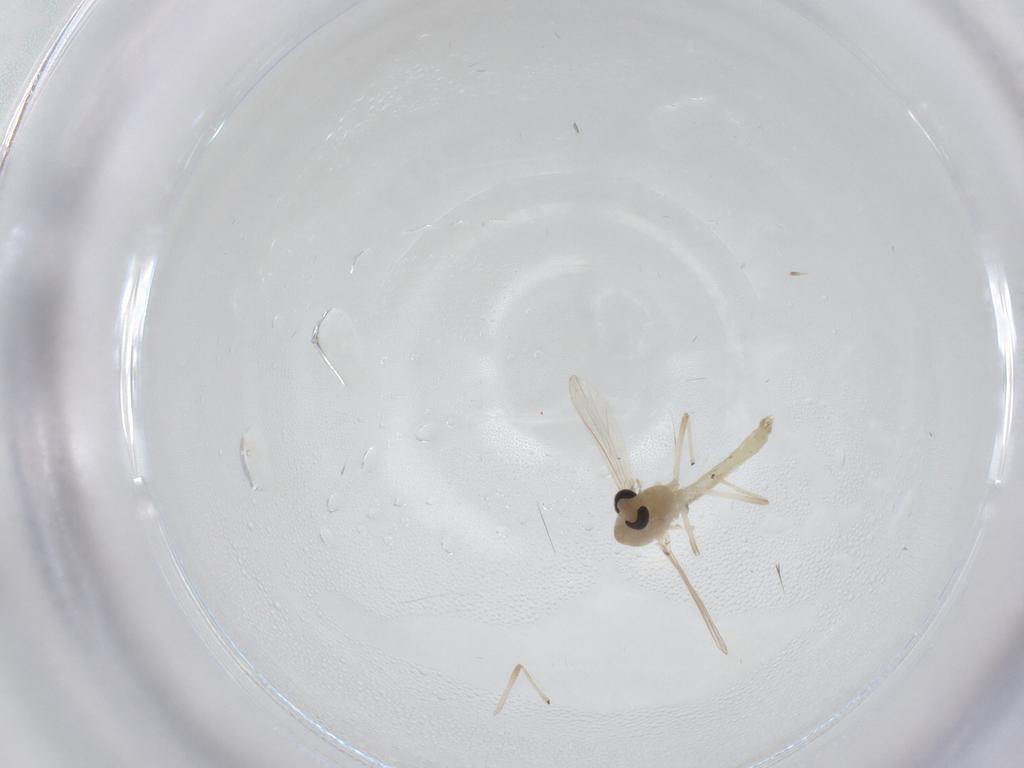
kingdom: Animalia
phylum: Arthropoda
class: Insecta
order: Diptera
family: Chironomidae
